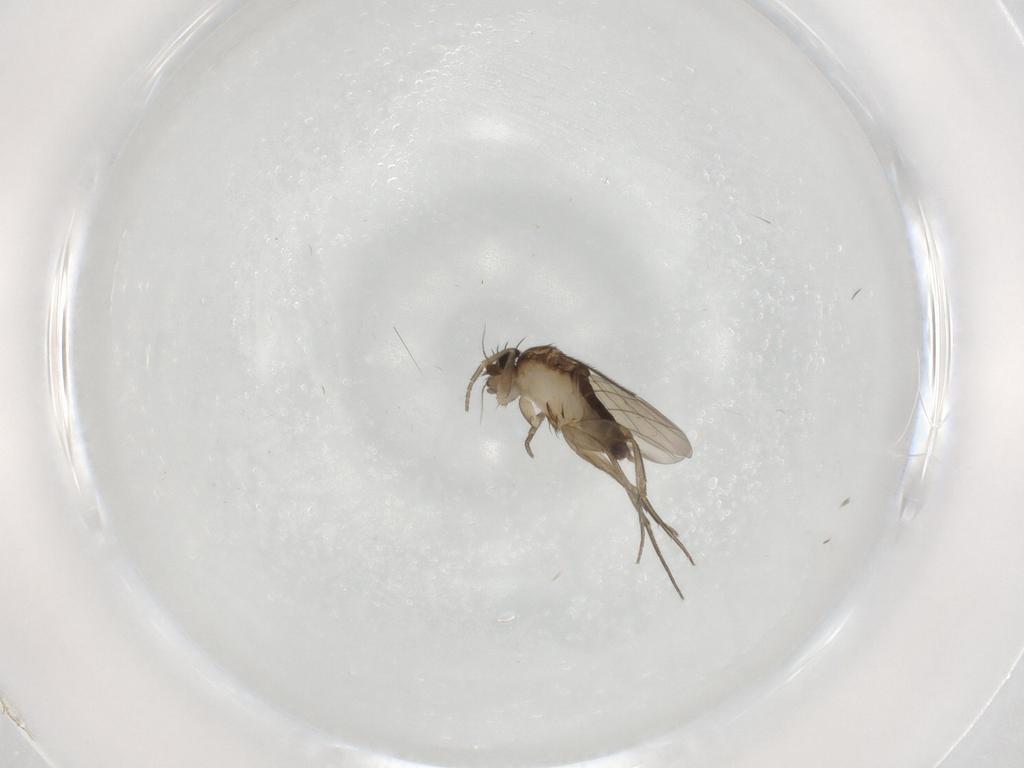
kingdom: Animalia
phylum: Arthropoda
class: Insecta
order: Diptera
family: Phoridae
